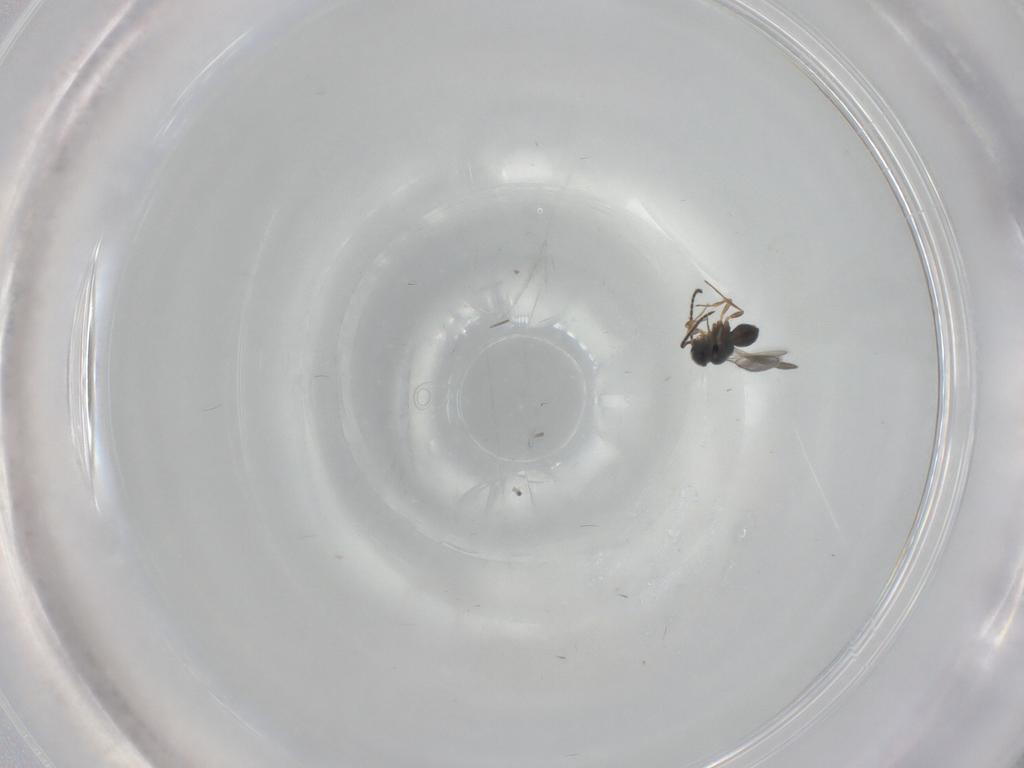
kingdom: Animalia
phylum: Arthropoda
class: Insecta
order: Hymenoptera
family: Scelionidae
